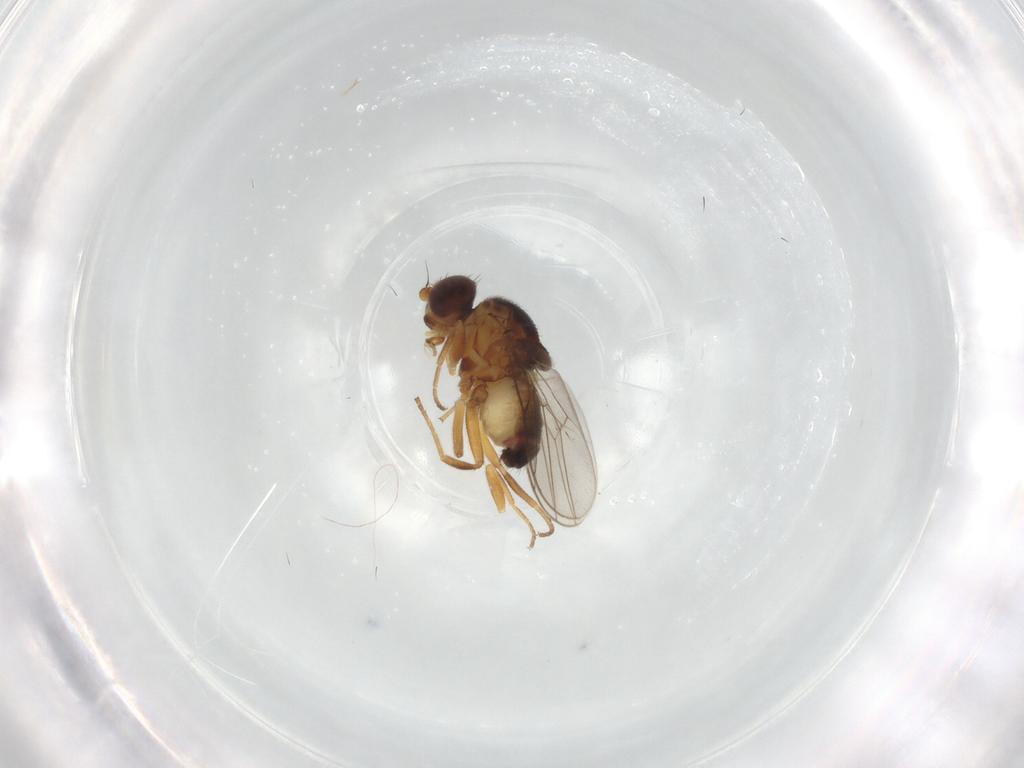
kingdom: Animalia
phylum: Arthropoda
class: Insecta
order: Diptera
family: Chloropidae
